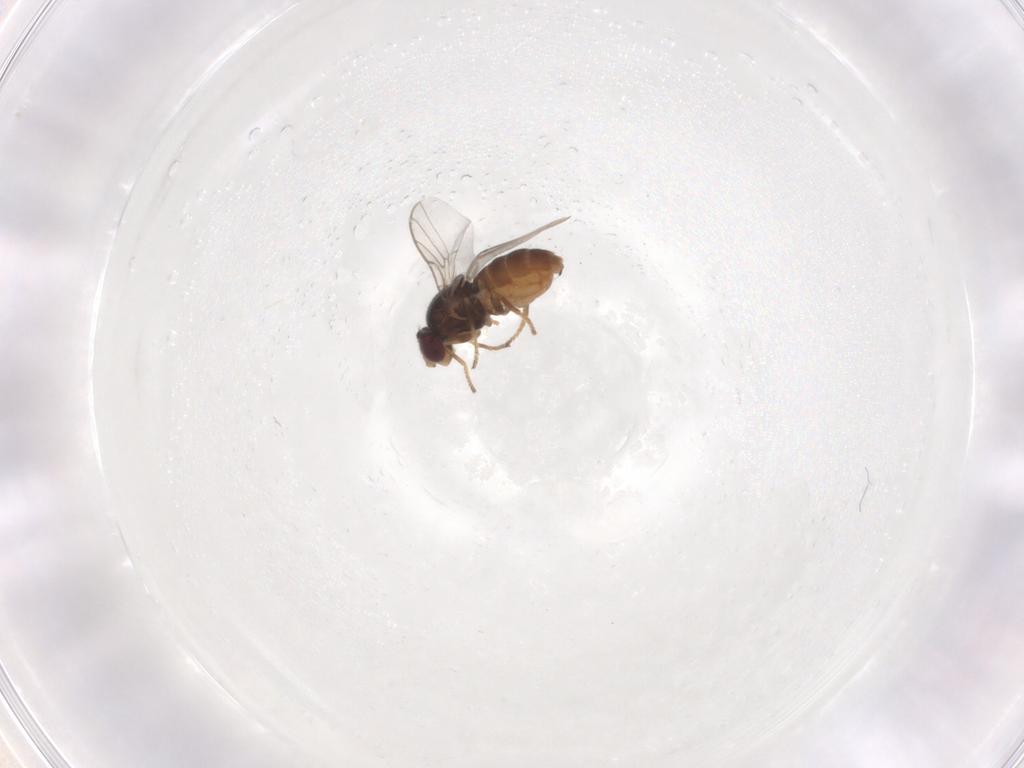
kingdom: Animalia
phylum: Arthropoda
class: Insecta
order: Diptera
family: Chloropidae
